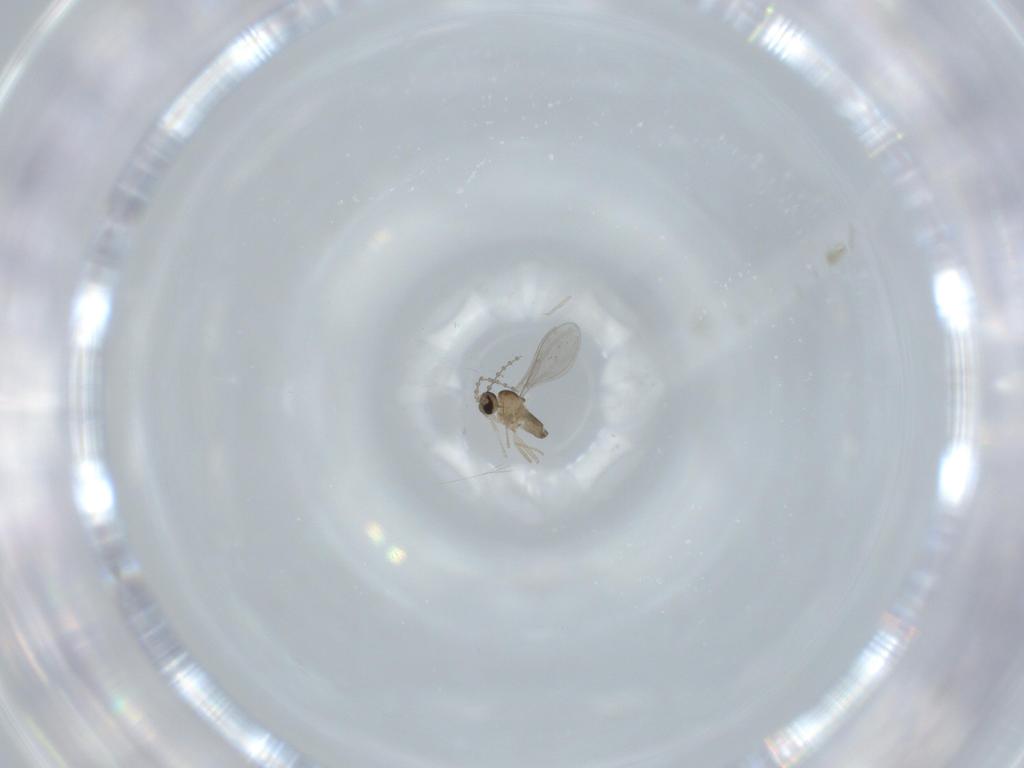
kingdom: Animalia
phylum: Arthropoda
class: Insecta
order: Diptera
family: Cecidomyiidae
